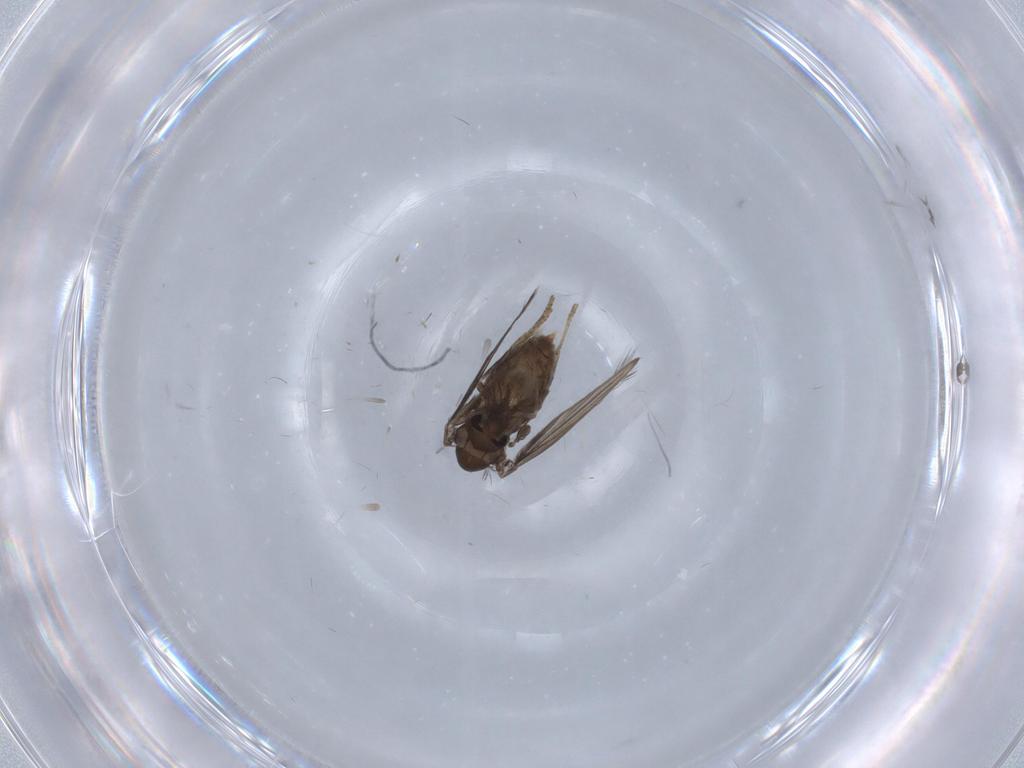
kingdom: Animalia
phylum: Arthropoda
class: Insecta
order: Diptera
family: Psychodidae
